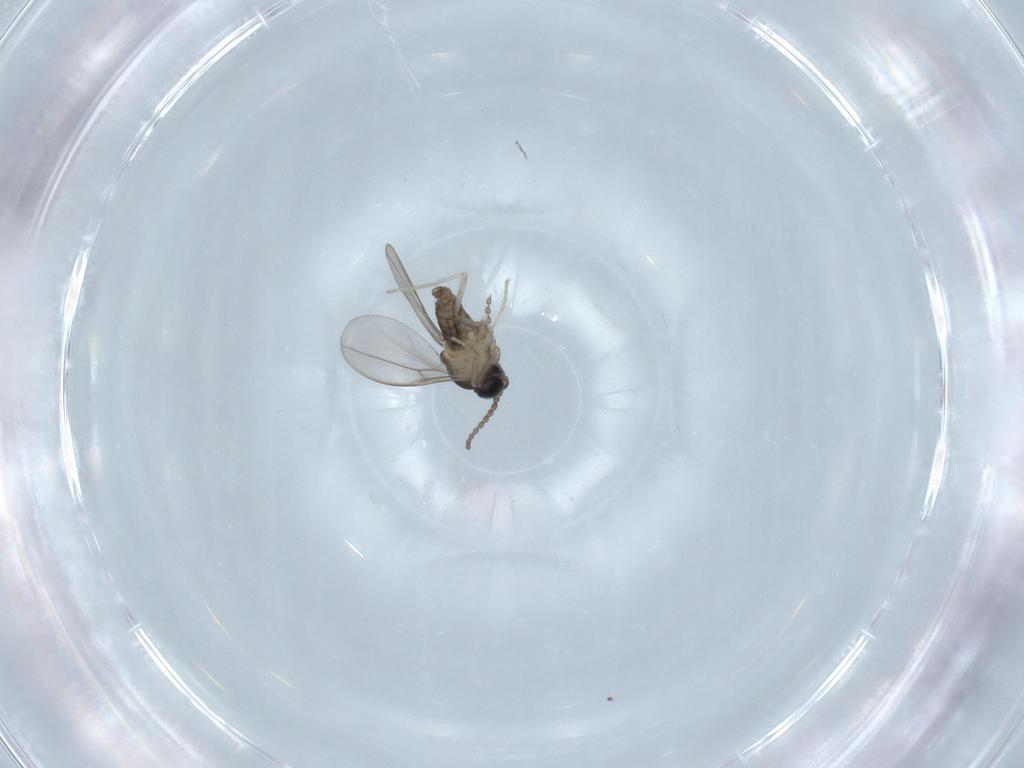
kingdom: Animalia
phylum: Arthropoda
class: Insecta
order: Diptera
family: Cecidomyiidae
